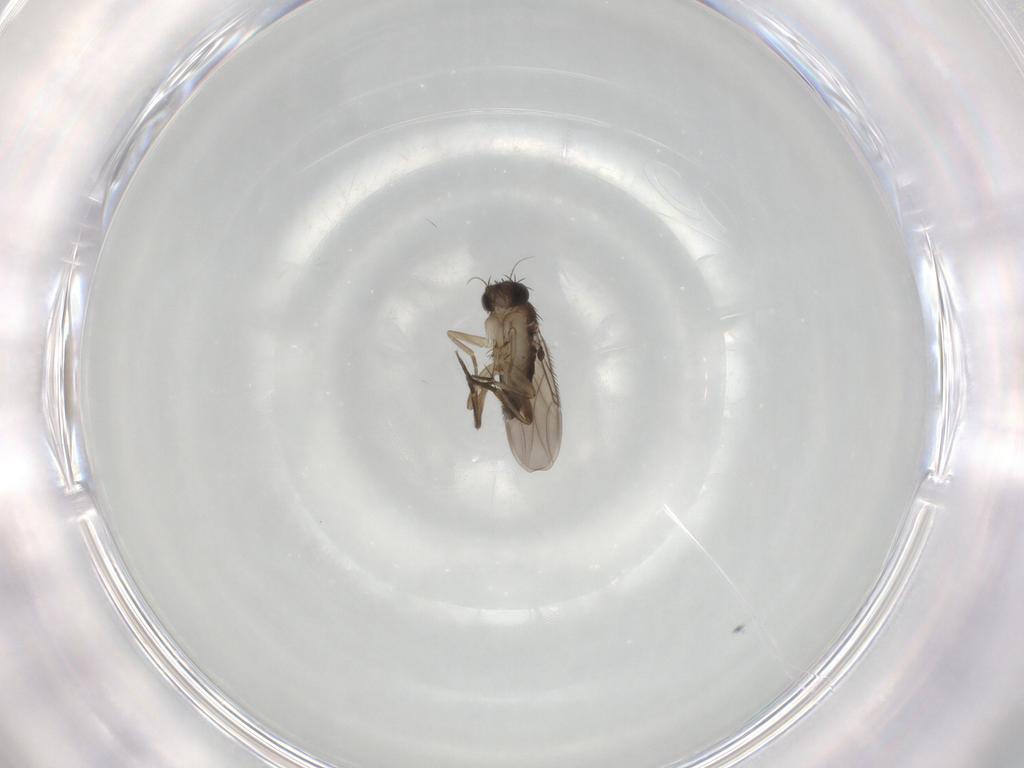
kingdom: Animalia
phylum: Arthropoda
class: Insecta
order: Diptera
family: Phoridae
